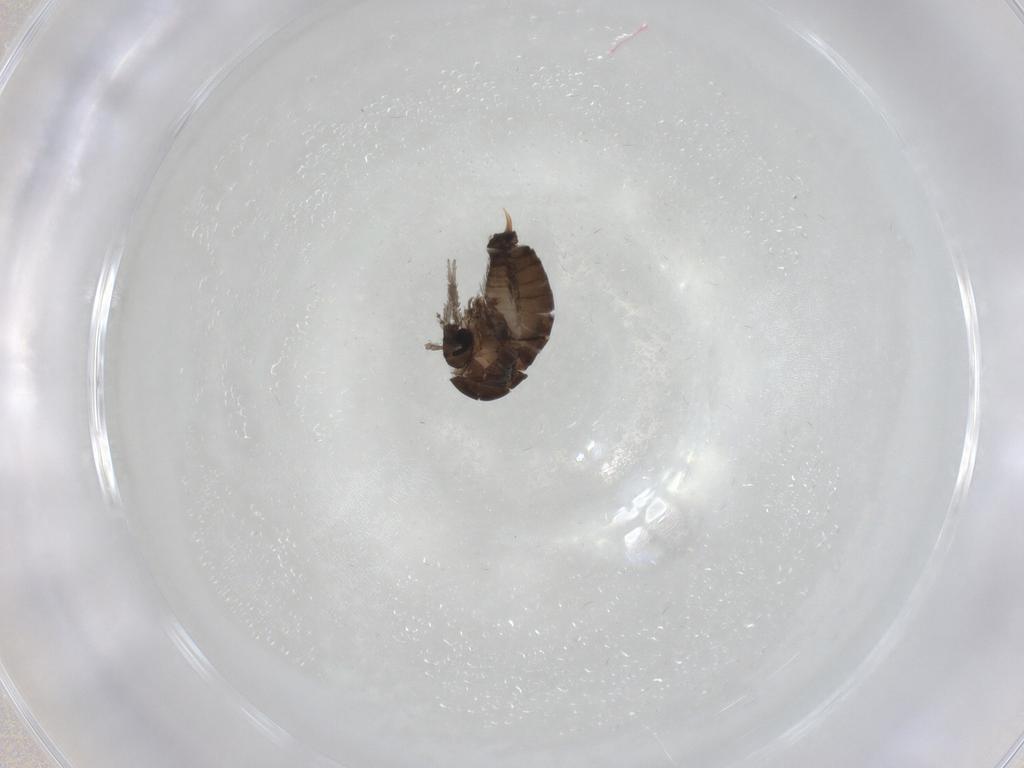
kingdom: Animalia
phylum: Arthropoda
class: Insecta
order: Diptera
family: Psychodidae
